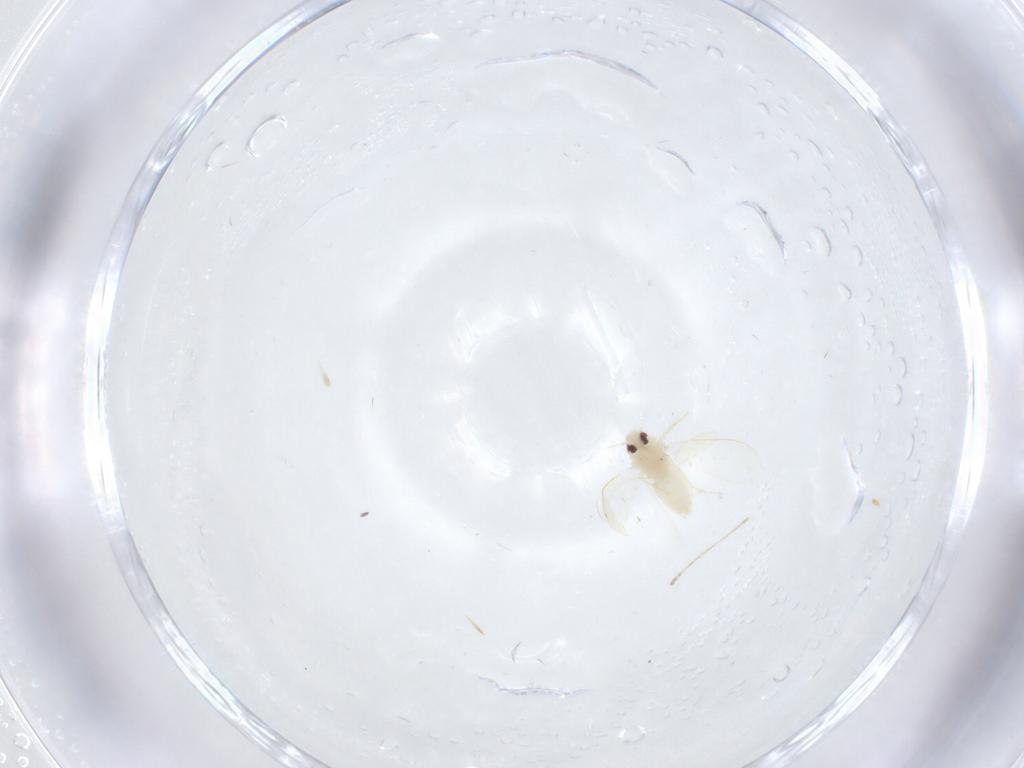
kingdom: Animalia
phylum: Arthropoda
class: Insecta
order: Hemiptera
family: Aleyrodidae
